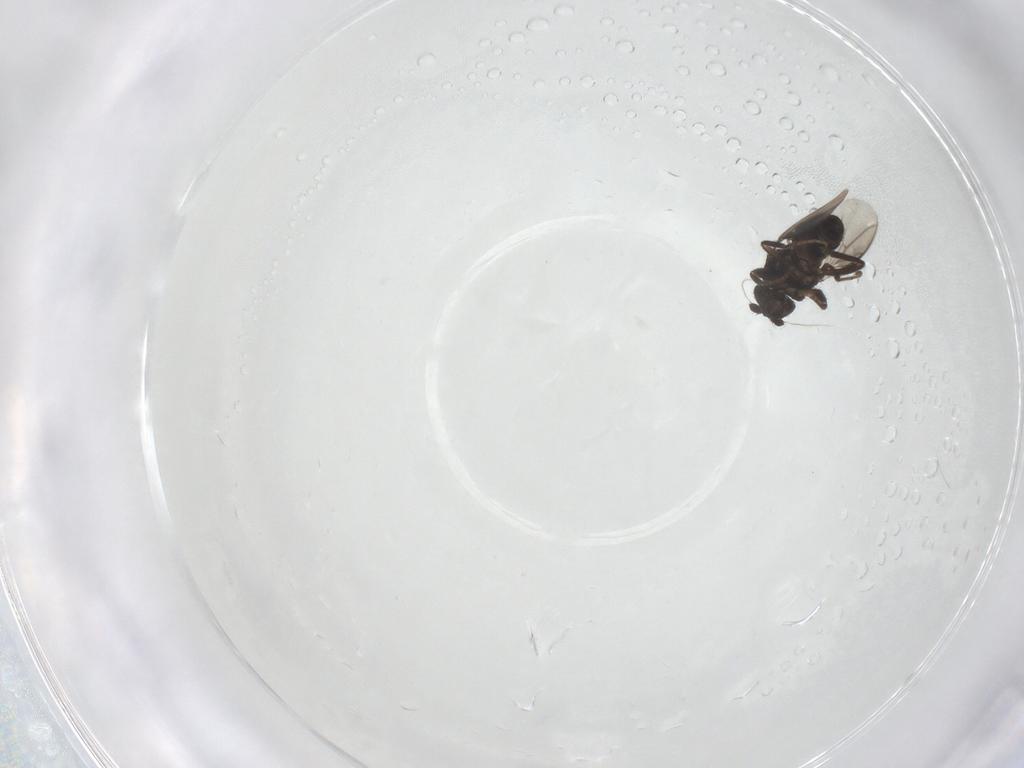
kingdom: Animalia
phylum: Arthropoda
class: Insecta
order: Diptera
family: Sphaeroceridae
